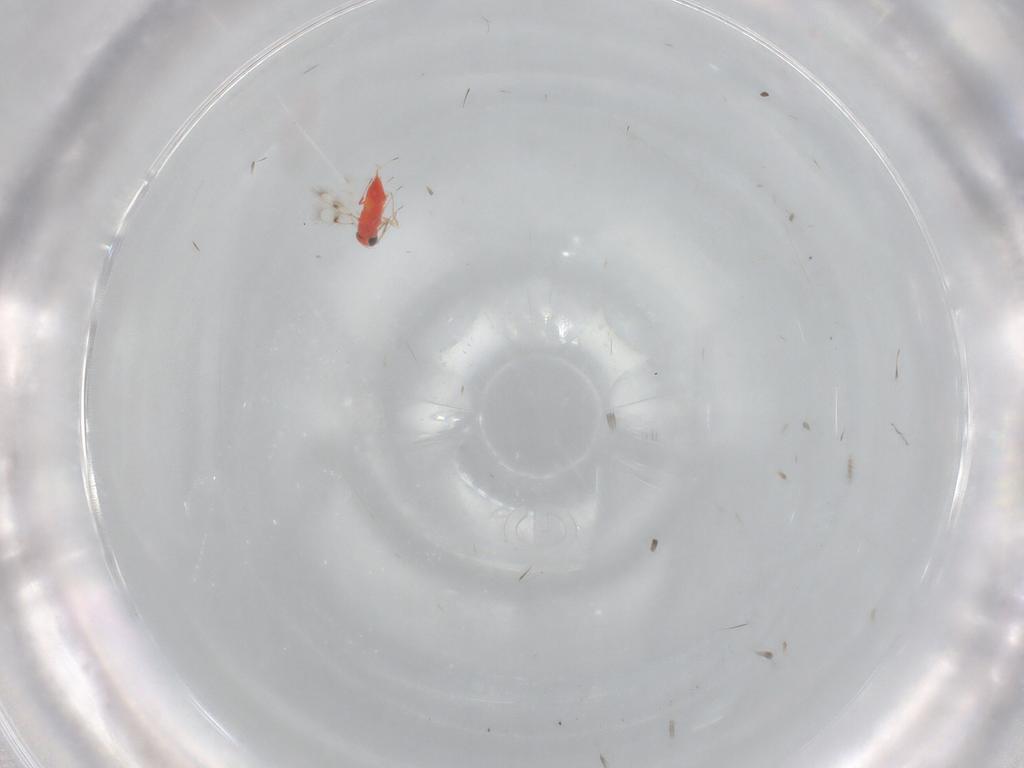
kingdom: Animalia
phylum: Arthropoda
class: Insecta
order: Hymenoptera
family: Trichogrammatidae
